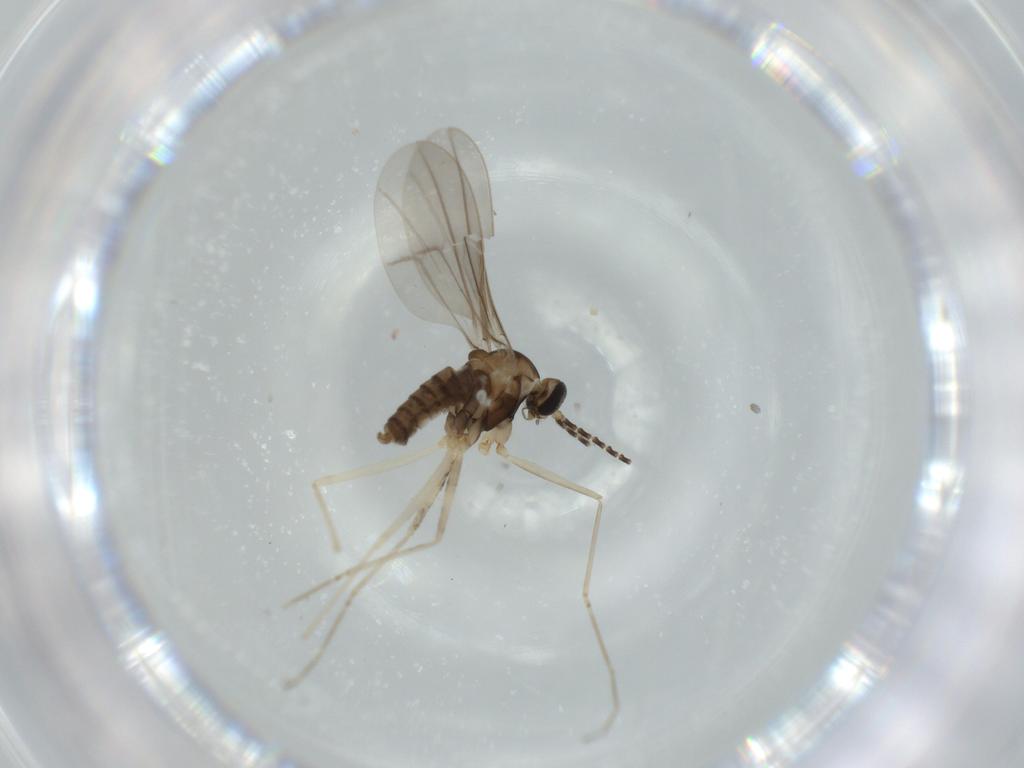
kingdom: Animalia
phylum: Arthropoda
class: Insecta
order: Diptera
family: Cecidomyiidae
